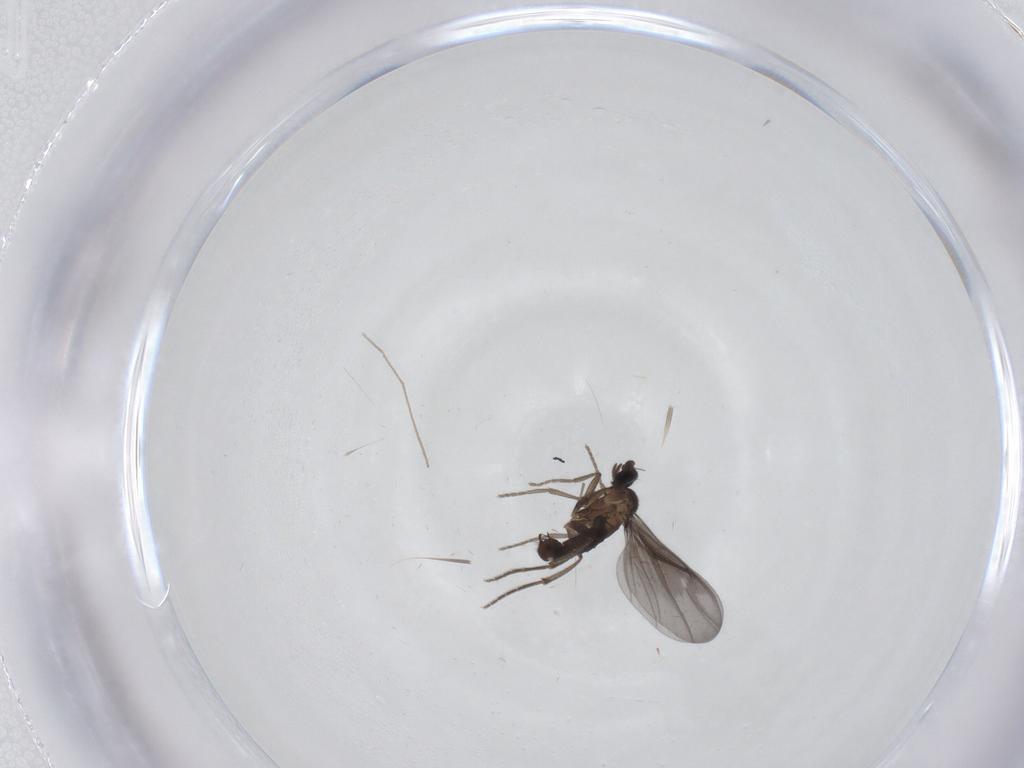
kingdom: Animalia
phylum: Arthropoda
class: Insecta
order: Diptera
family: Phoridae
